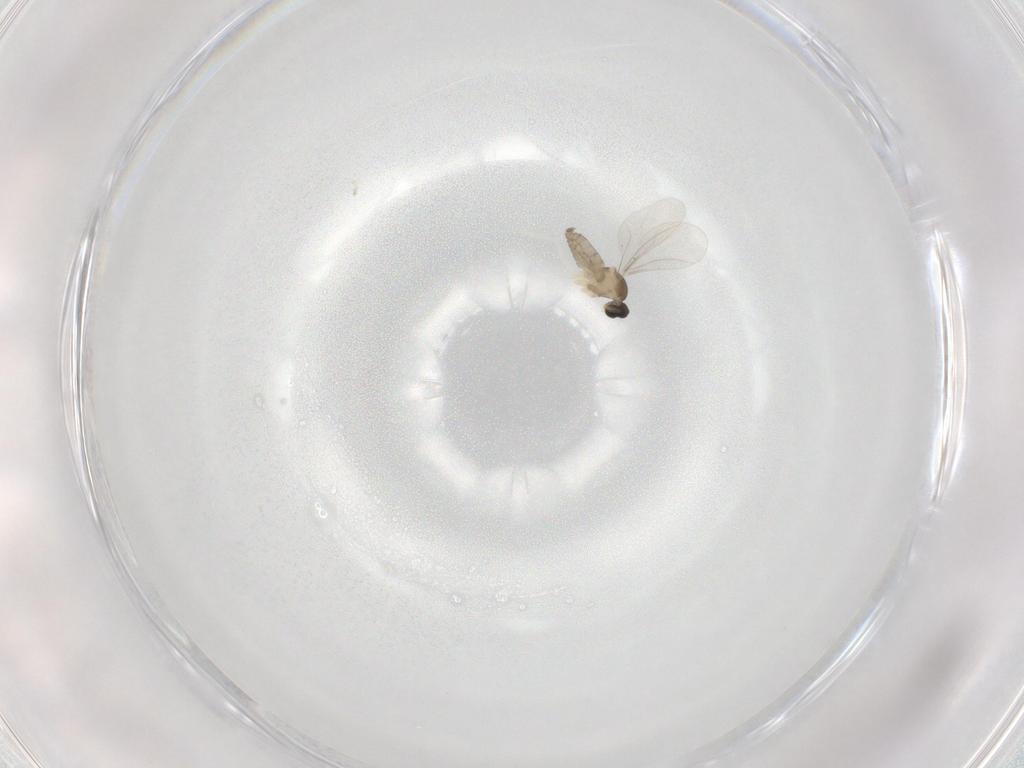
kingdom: Animalia
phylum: Arthropoda
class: Insecta
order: Diptera
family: Cecidomyiidae
